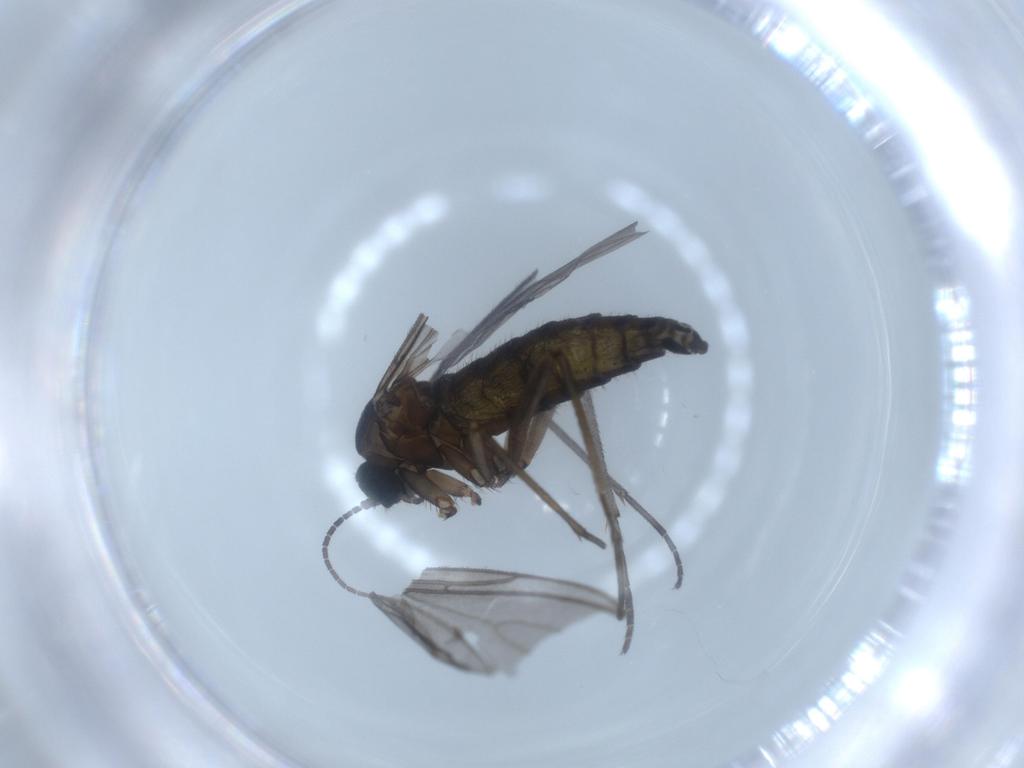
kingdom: Animalia
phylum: Arthropoda
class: Insecta
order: Diptera
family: Sciaridae
